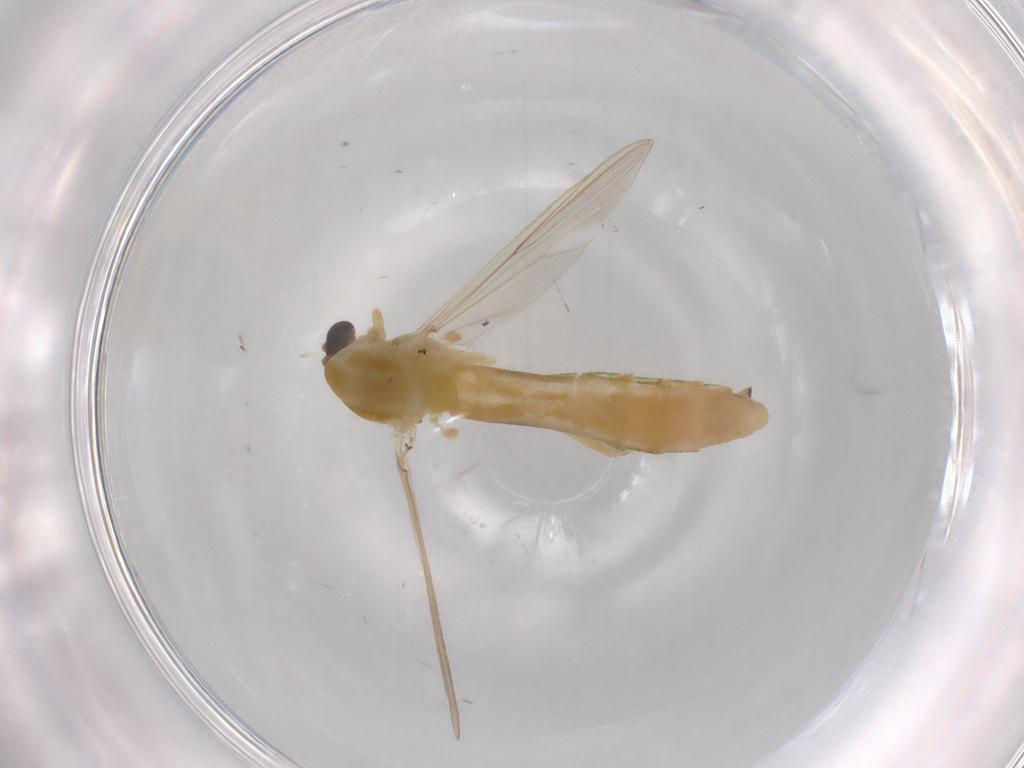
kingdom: Animalia
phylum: Arthropoda
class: Insecta
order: Diptera
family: Chironomidae
